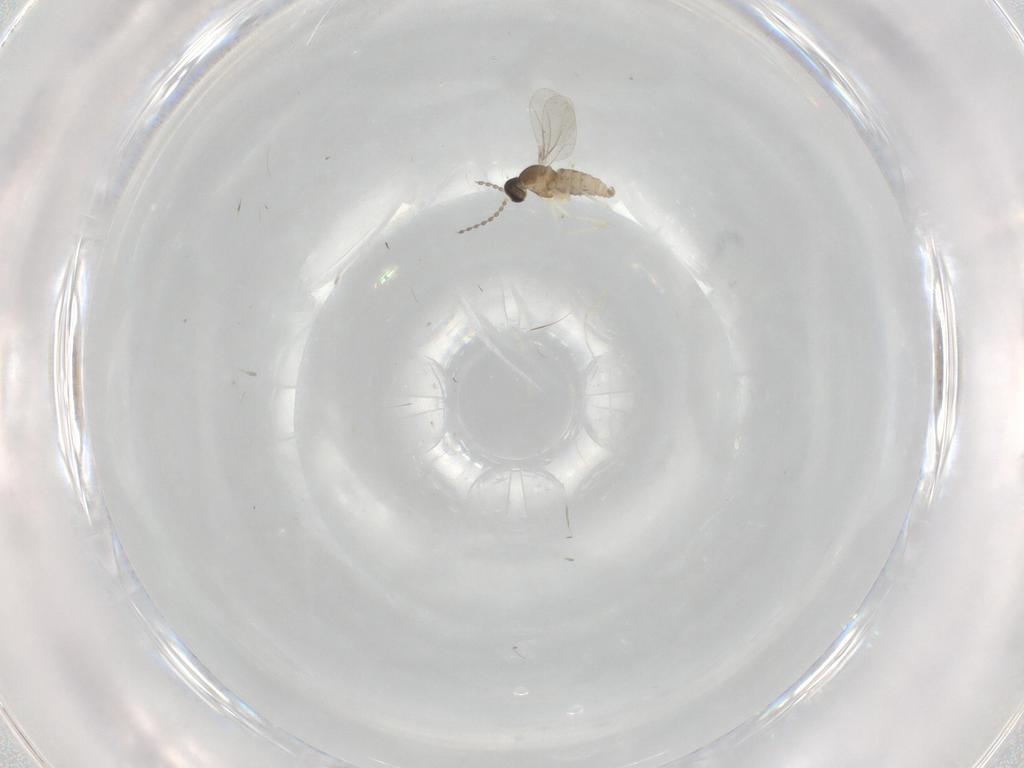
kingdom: Animalia
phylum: Arthropoda
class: Insecta
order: Diptera
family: Cecidomyiidae
